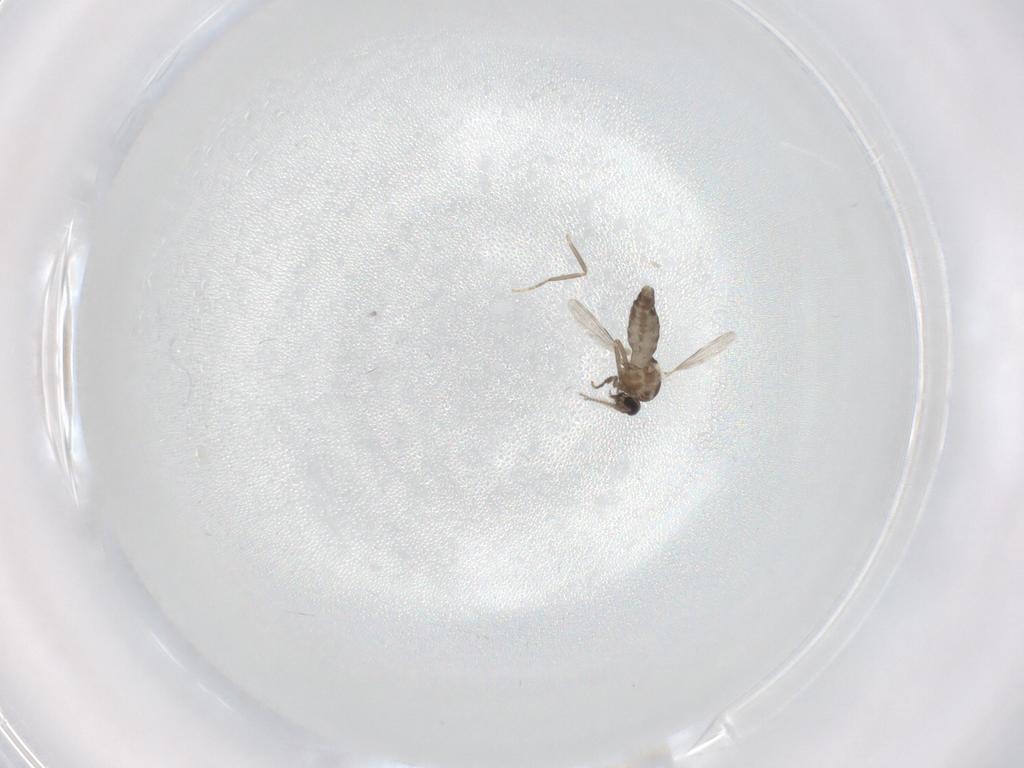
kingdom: Animalia
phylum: Arthropoda
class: Insecta
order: Diptera
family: Ceratopogonidae
